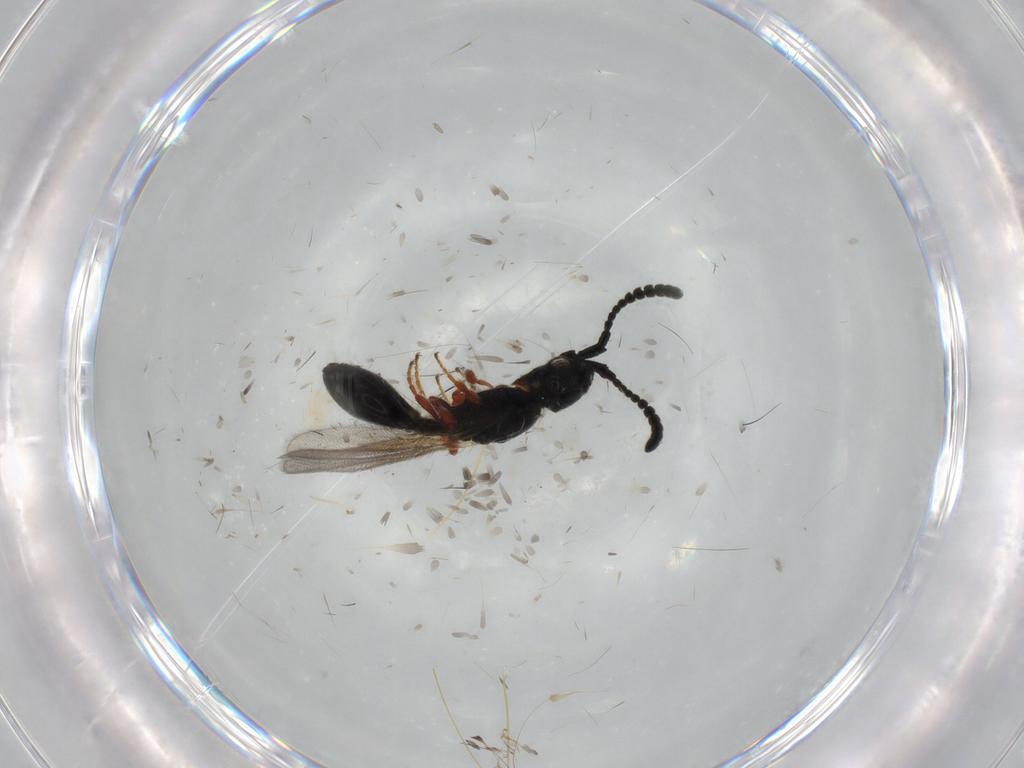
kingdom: Animalia
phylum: Arthropoda
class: Insecta
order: Hymenoptera
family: Diapriidae
